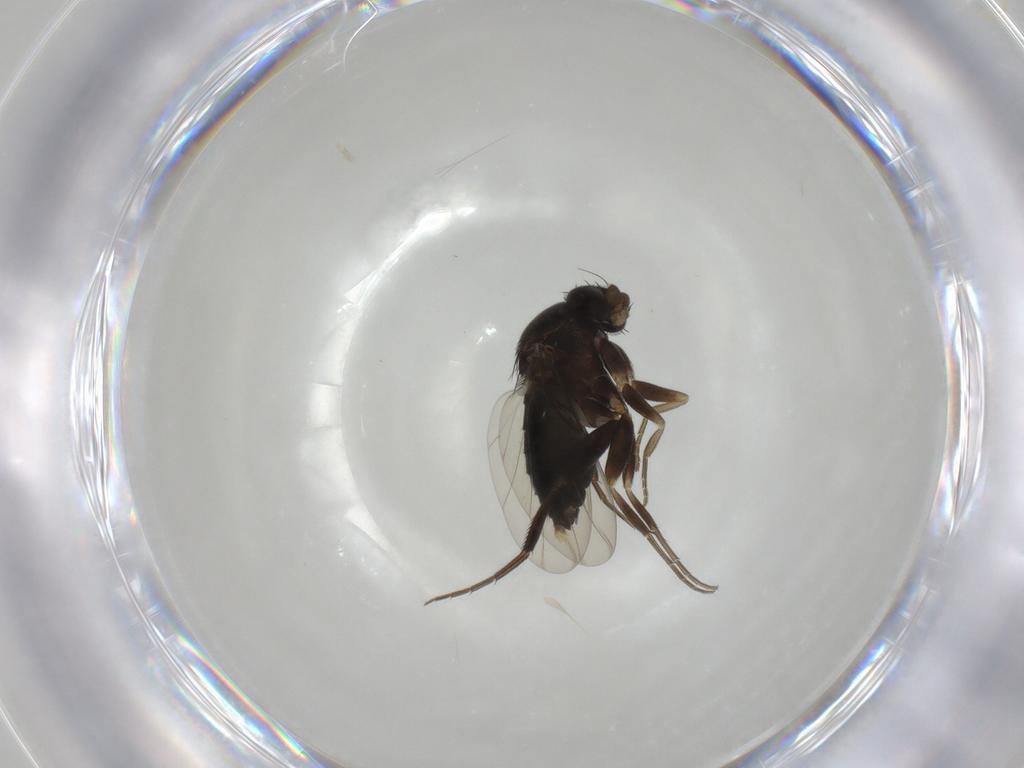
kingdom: Animalia
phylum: Arthropoda
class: Insecta
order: Diptera
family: Phoridae
